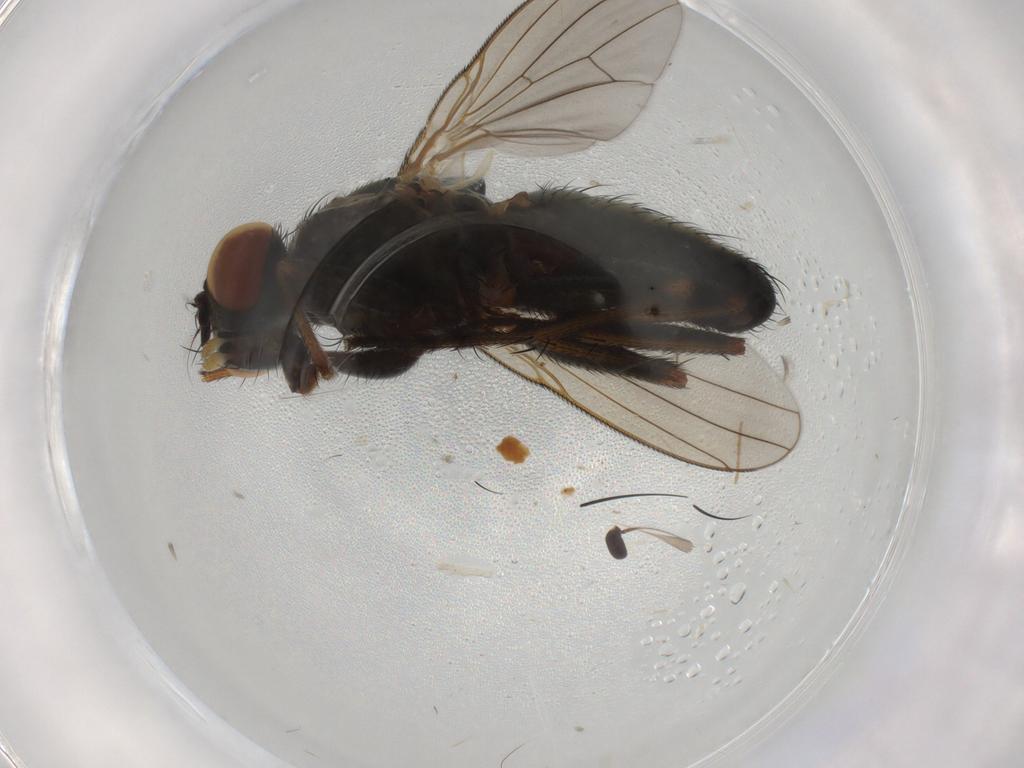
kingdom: Animalia
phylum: Arthropoda
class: Insecta
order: Diptera
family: Muscidae
